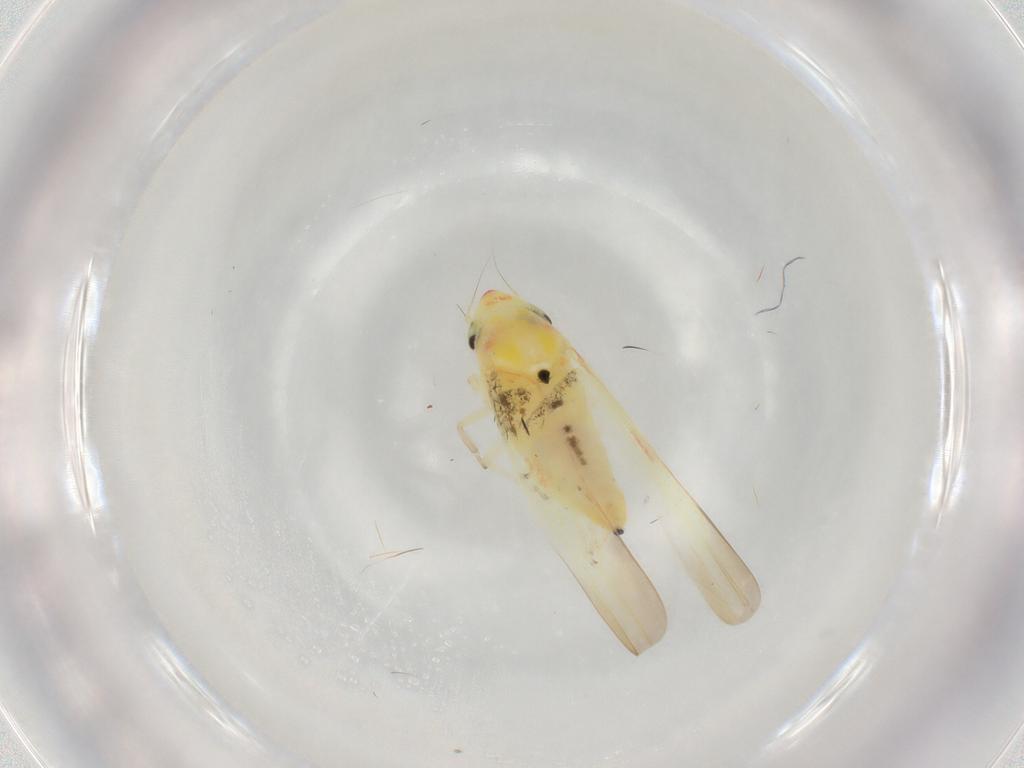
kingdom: Animalia
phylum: Arthropoda
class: Insecta
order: Hemiptera
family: Cicadellidae
